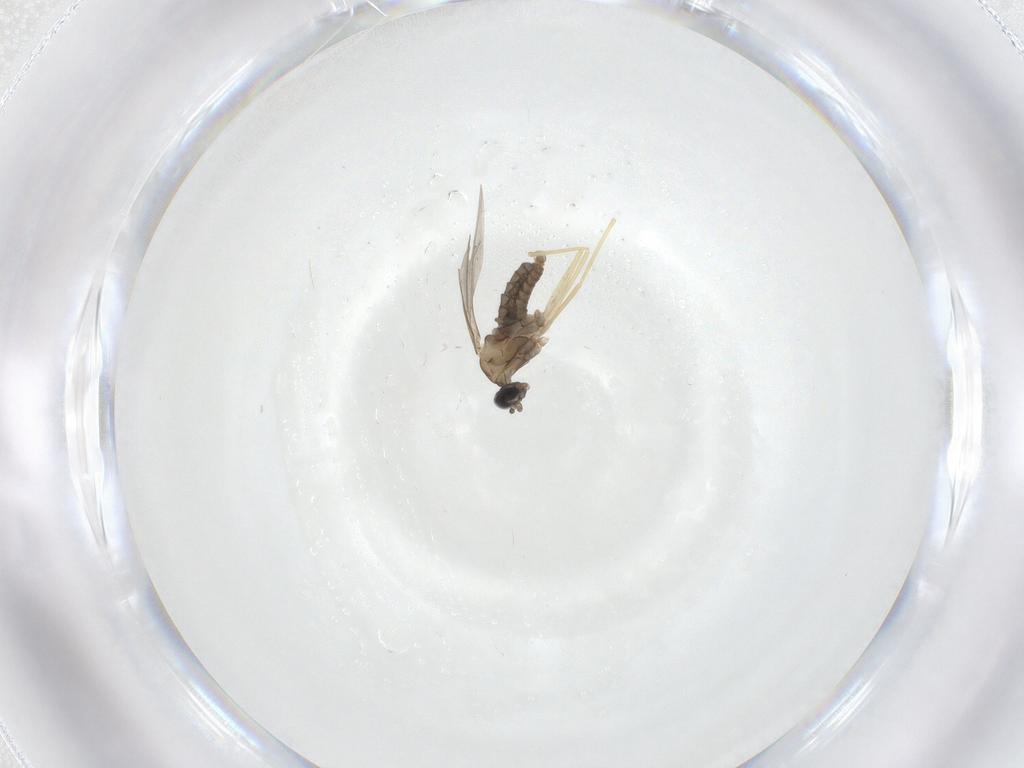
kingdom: Animalia
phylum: Arthropoda
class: Insecta
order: Diptera
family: Cecidomyiidae
